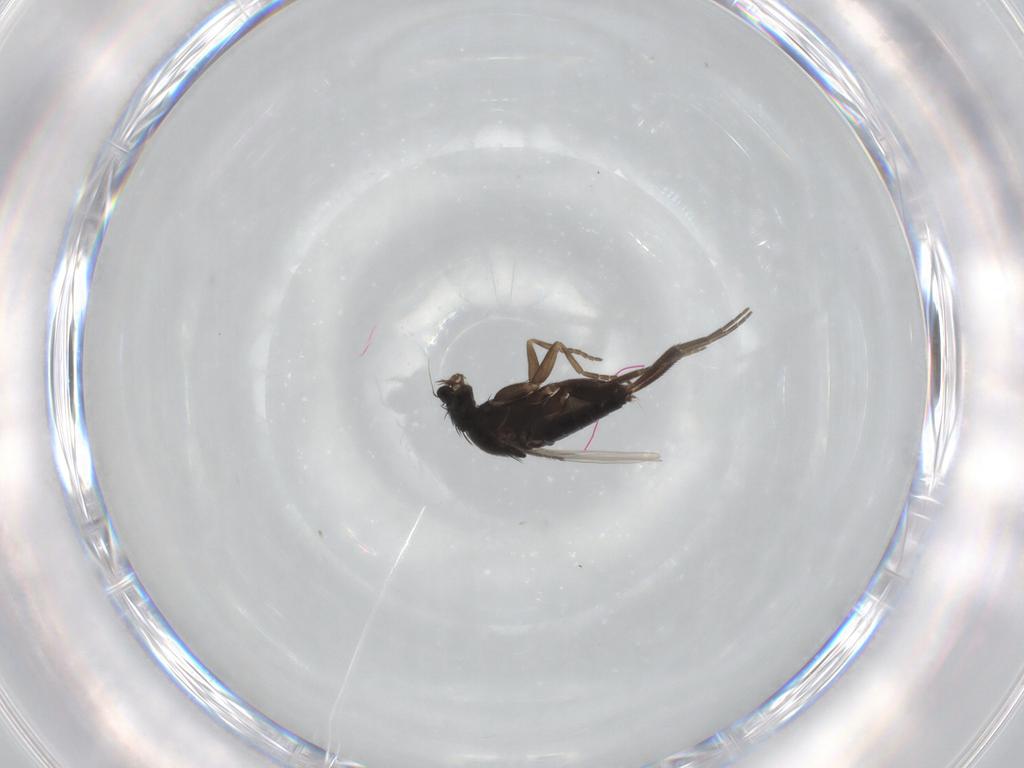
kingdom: Animalia
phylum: Arthropoda
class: Insecta
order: Diptera
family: Phoridae
